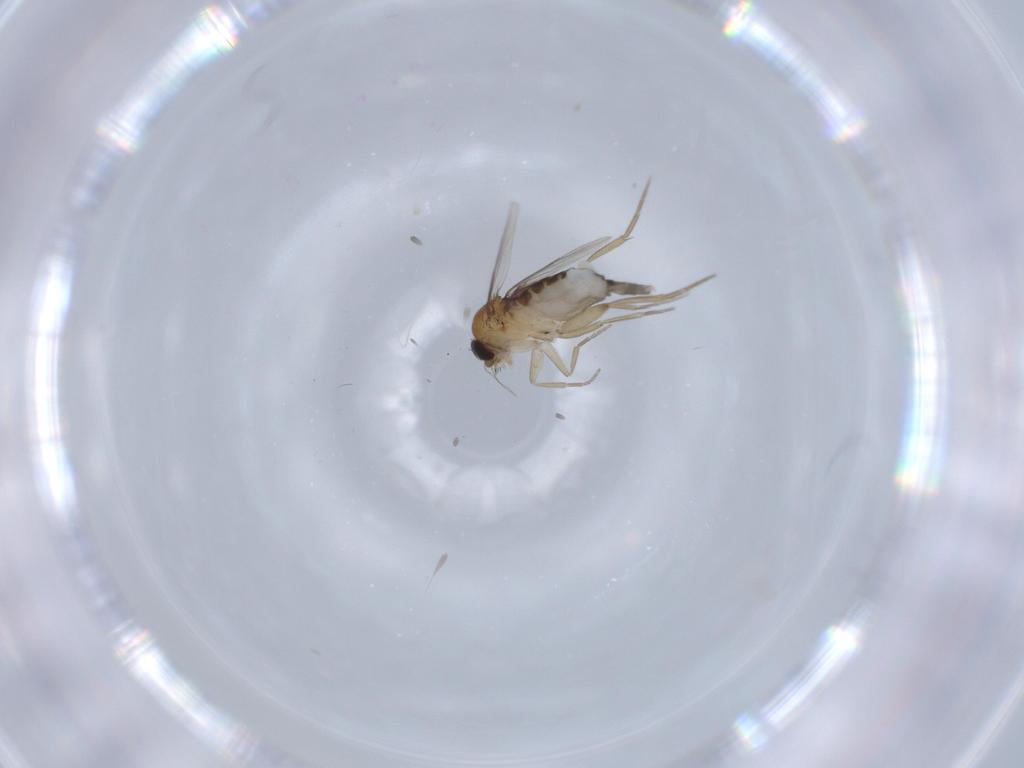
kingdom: Animalia
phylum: Arthropoda
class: Insecta
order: Diptera
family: Phoridae
